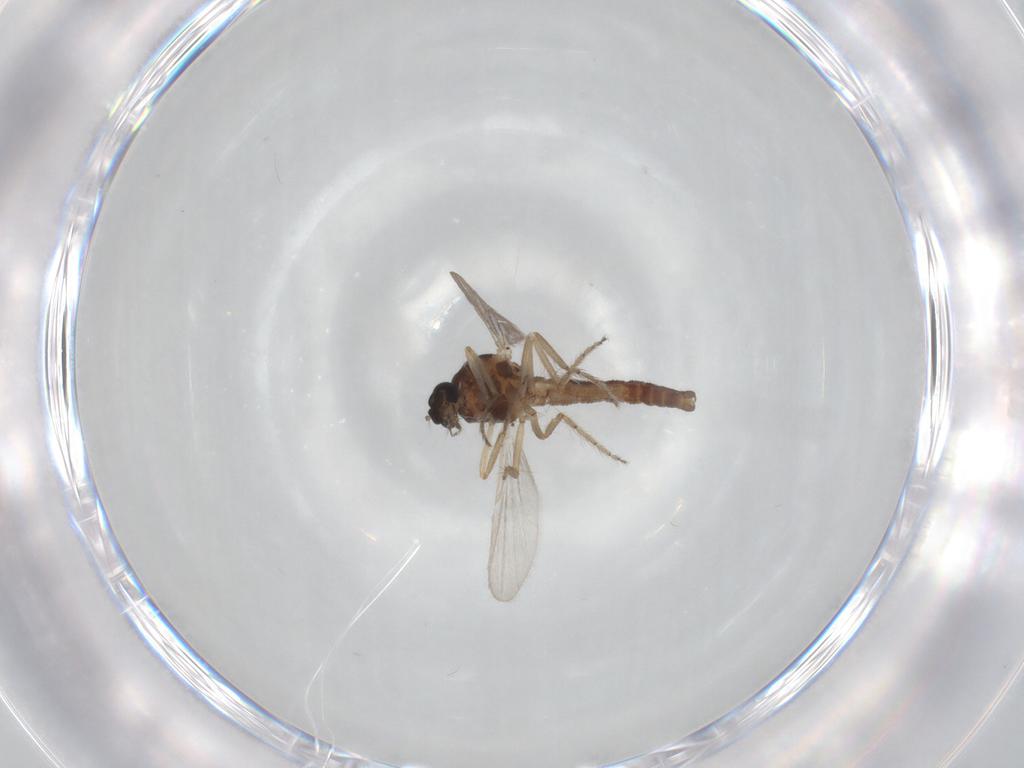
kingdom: Animalia
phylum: Arthropoda
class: Insecta
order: Diptera
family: Ceratopogonidae
